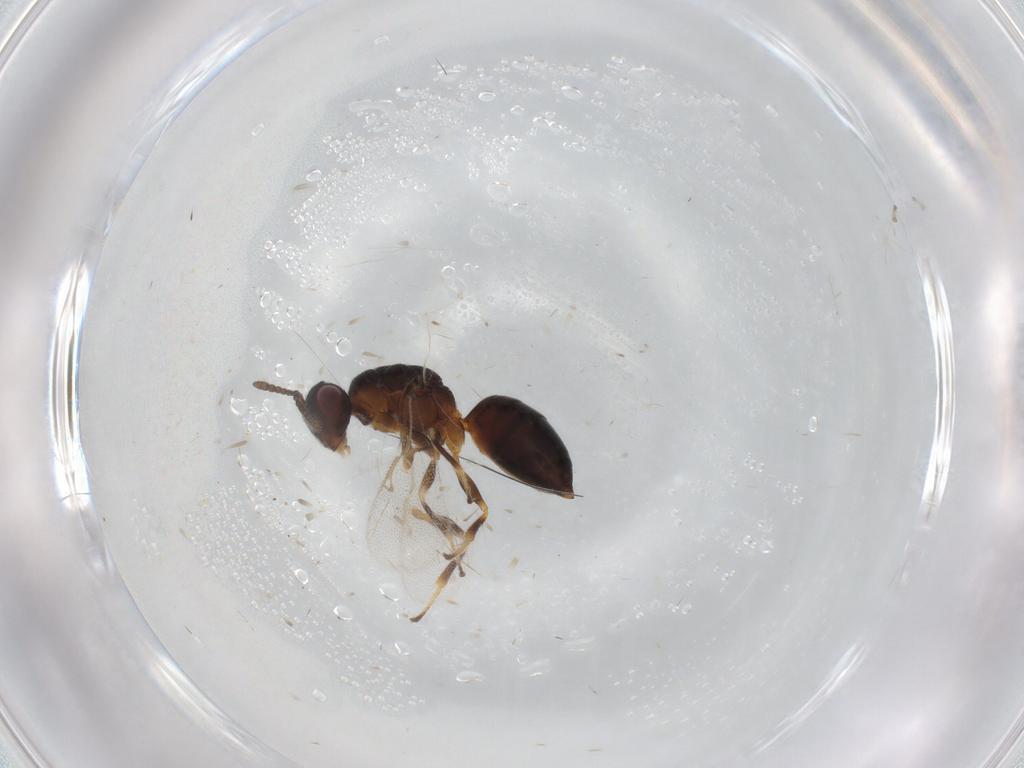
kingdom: Animalia
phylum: Arthropoda
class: Insecta
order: Hymenoptera
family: Eurytomidae
